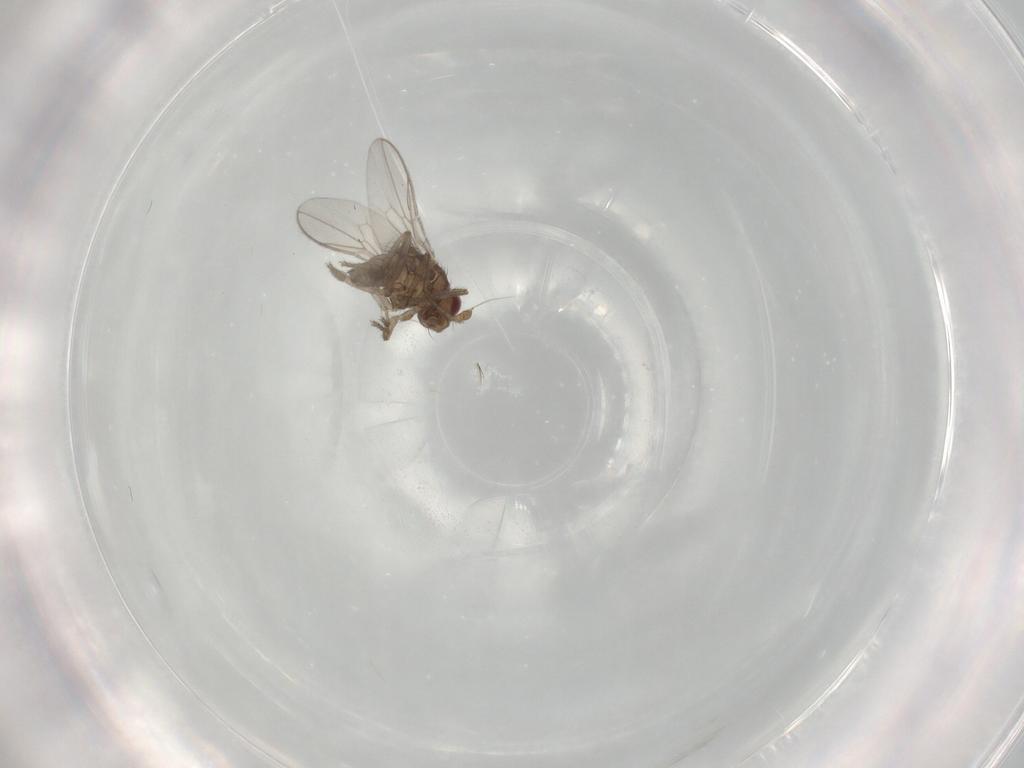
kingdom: Animalia
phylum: Arthropoda
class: Insecta
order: Diptera
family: Sphaeroceridae
